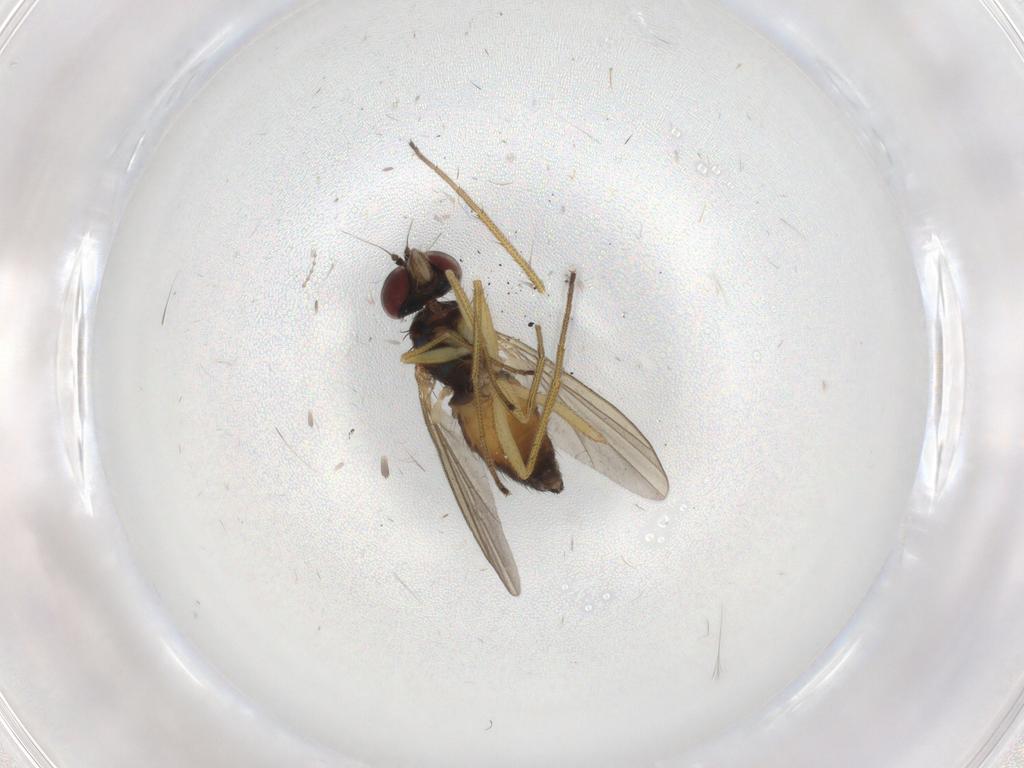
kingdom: Animalia
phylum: Arthropoda
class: Insecta
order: Diptera
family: Dolichopodidae
